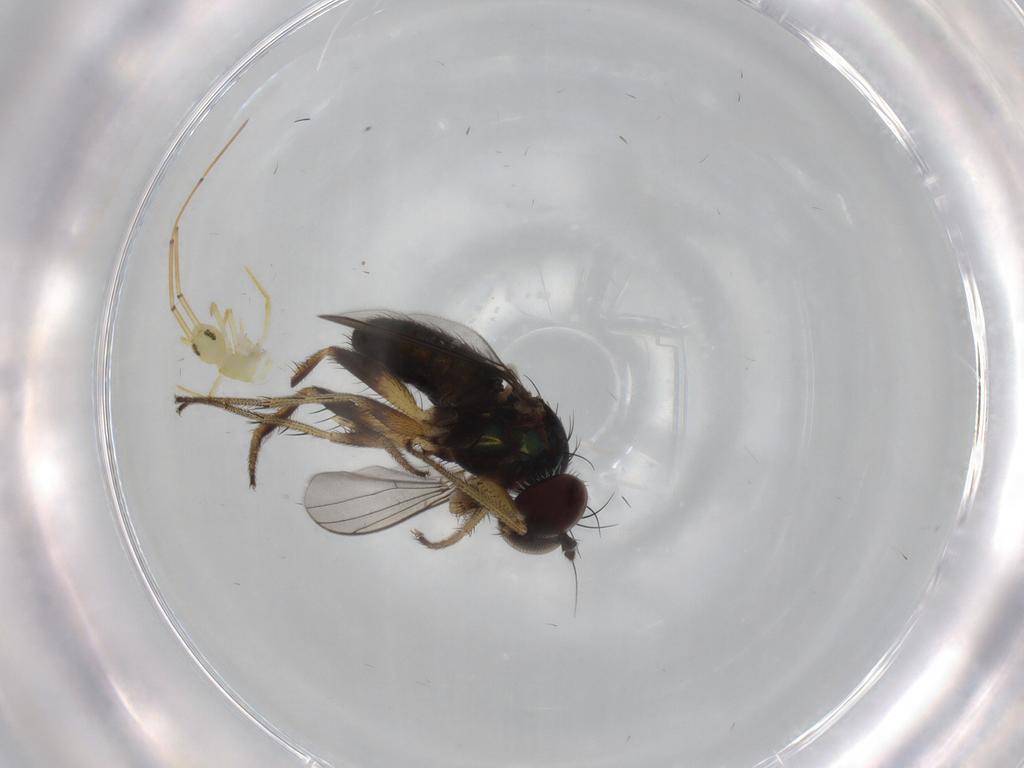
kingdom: Animalia
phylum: Arthropoda
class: Insecta
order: Diptera
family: Dolichopodidae
